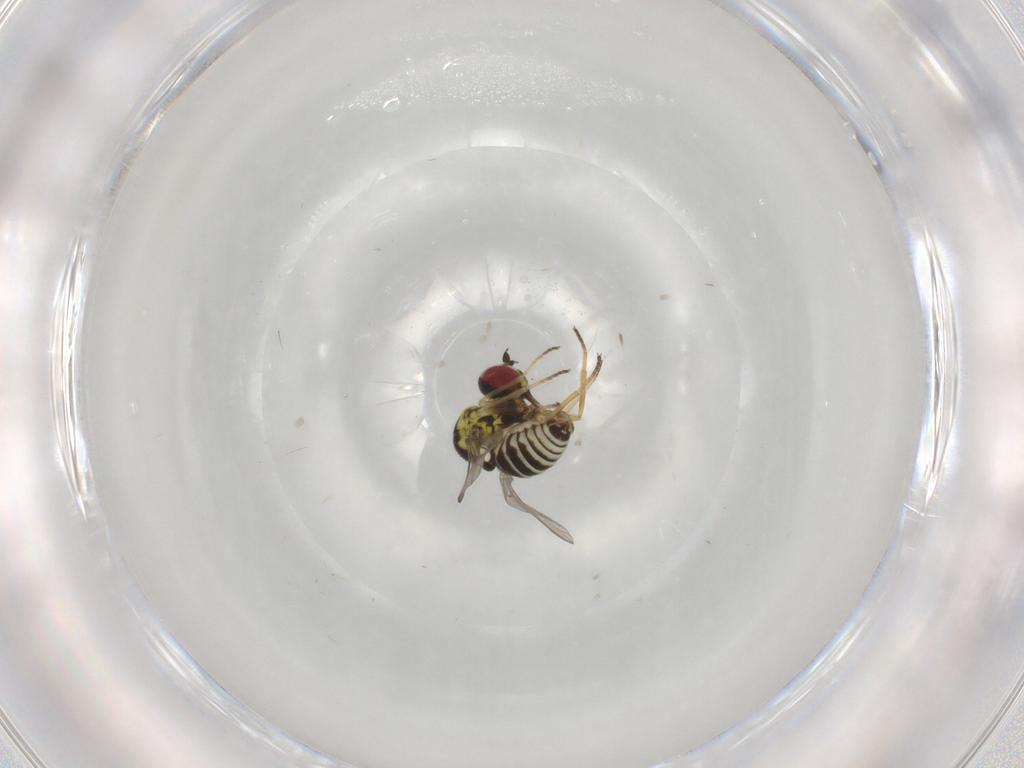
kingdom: Animalia
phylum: Arthropoda
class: Insecta
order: Diptera
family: Bombyliidae
